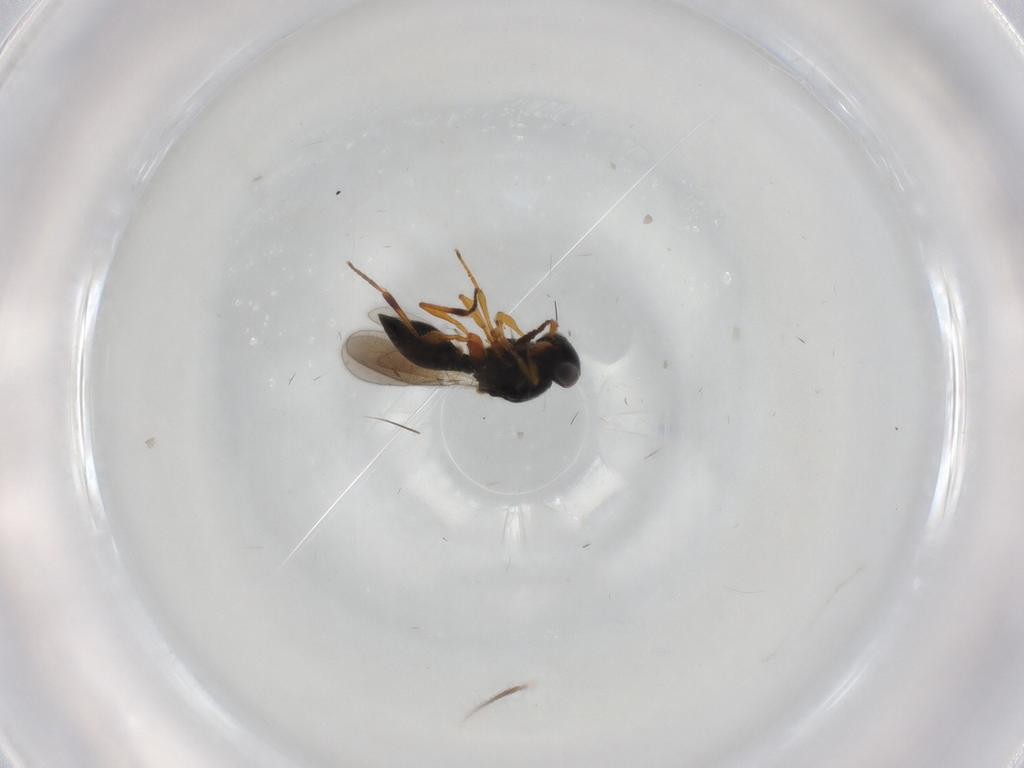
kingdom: Animalia
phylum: Arthropoda
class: Insecta
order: Hymenoptera
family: Platygastridae
